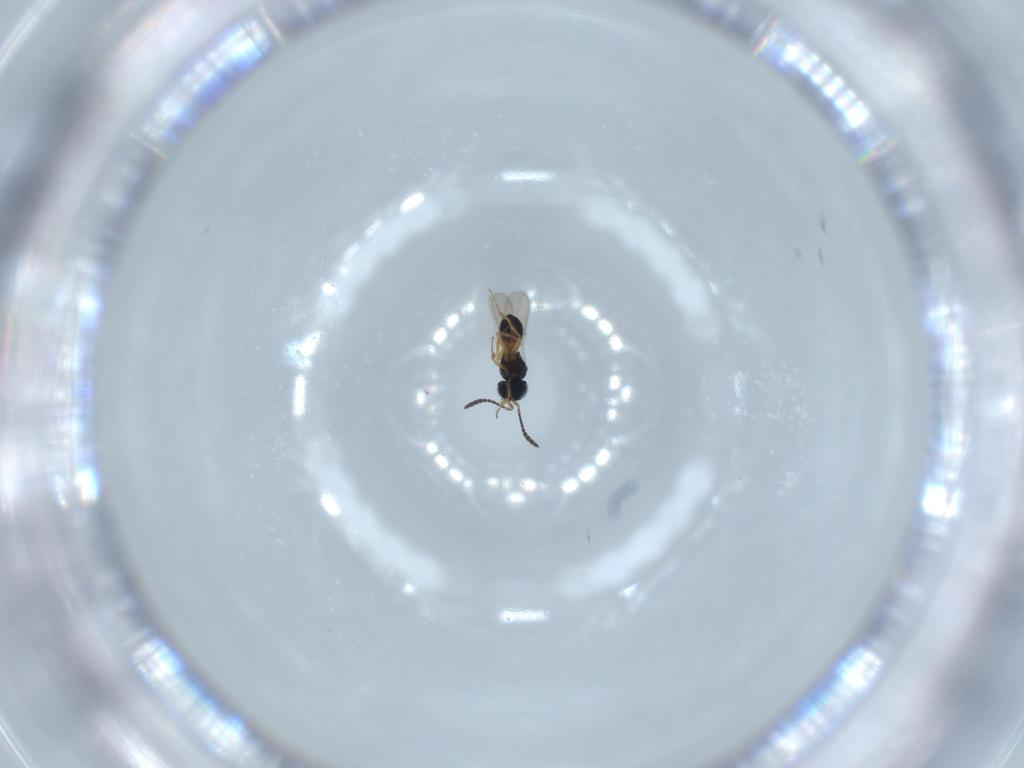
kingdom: Animalia
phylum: Arthropoda
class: Insecta
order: Hymenoptera
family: Scelionidae
